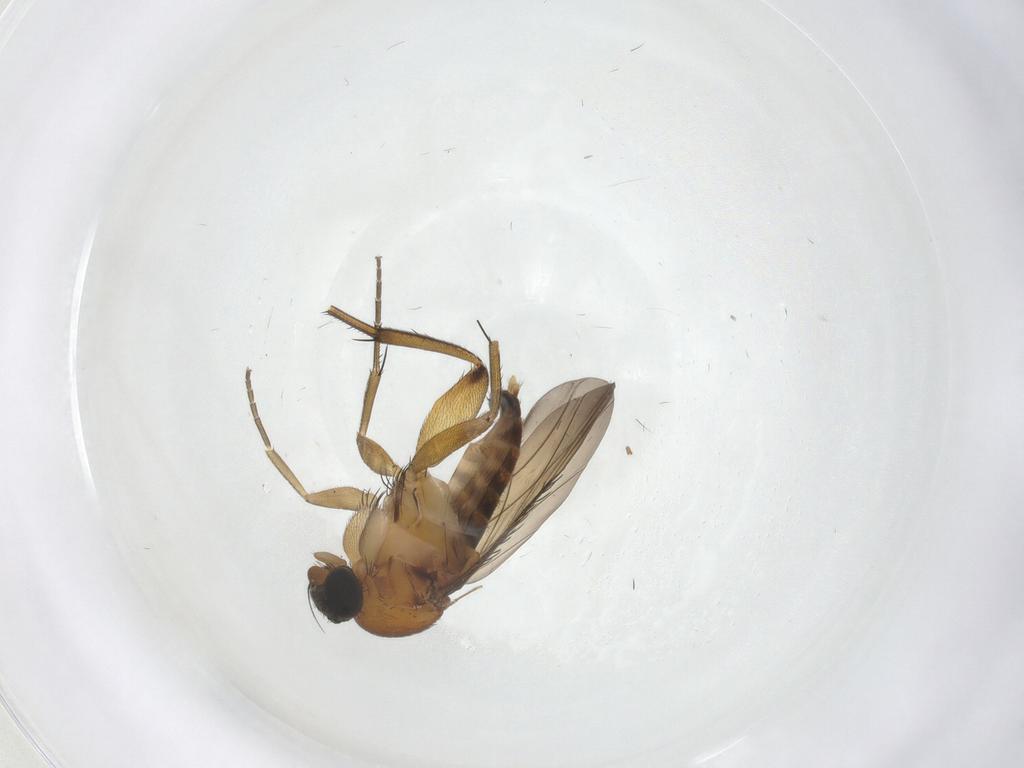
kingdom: Animalia
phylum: Arthropoda
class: Insecta
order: Diptera
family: Phoridae
